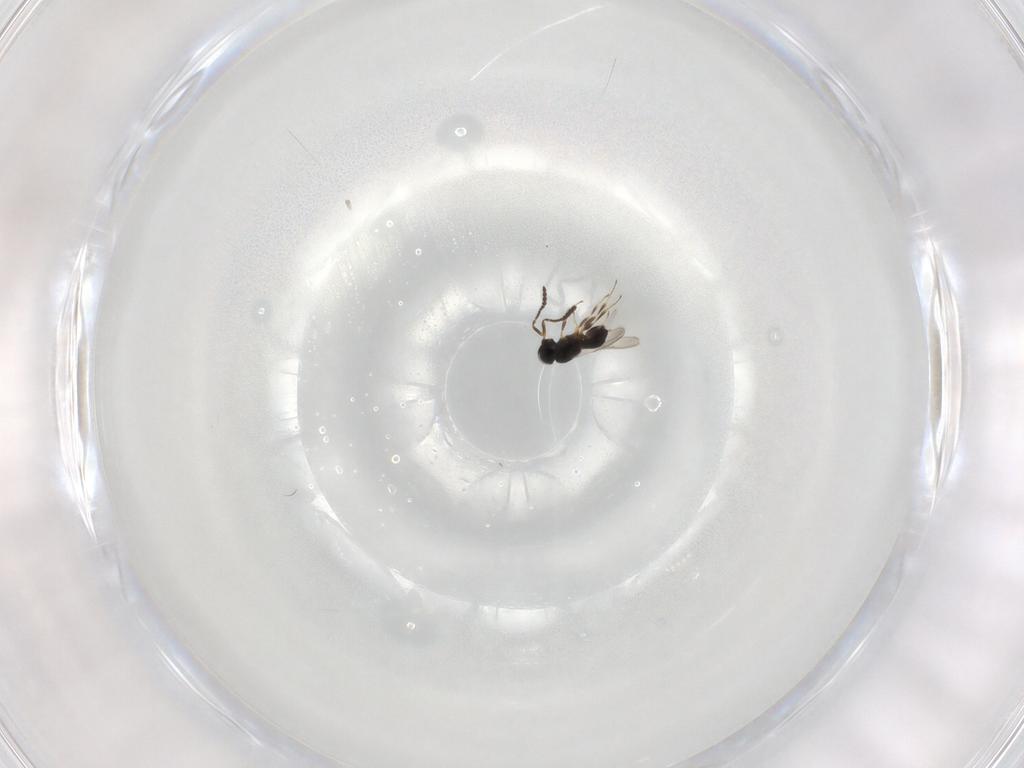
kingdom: Animalia
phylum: Arthropoda
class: Insecta
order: Hymenoptera
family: Scelionidae
